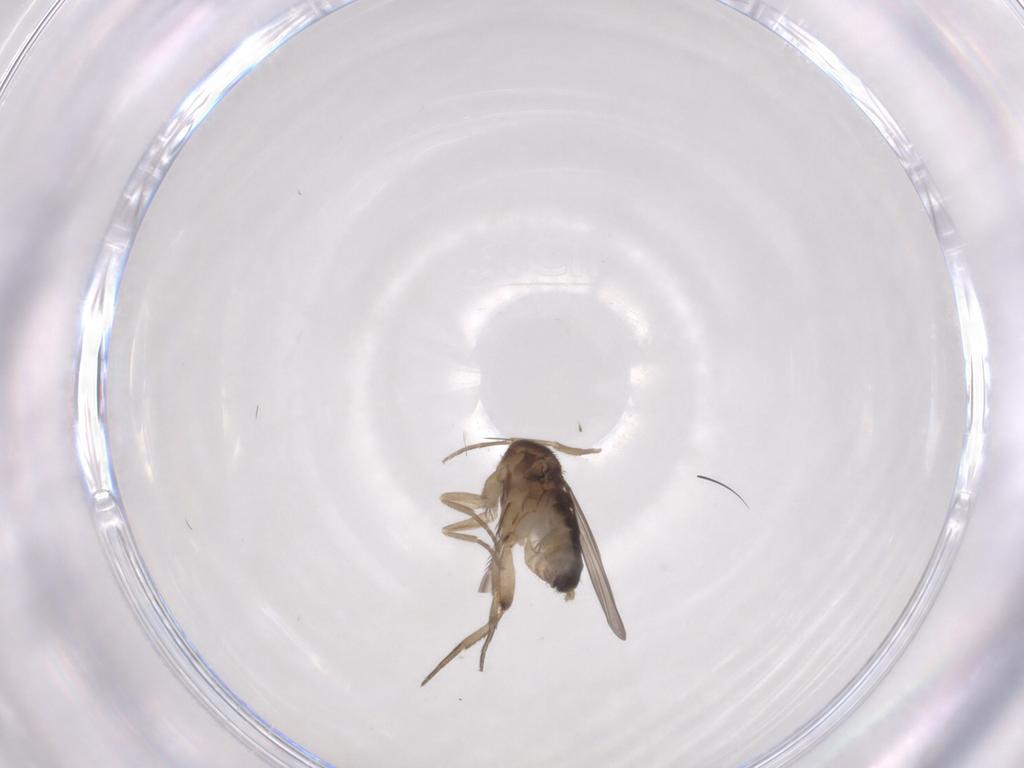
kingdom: Animalia
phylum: Arthropoda
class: Insecta
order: Diptera
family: Phoridae
